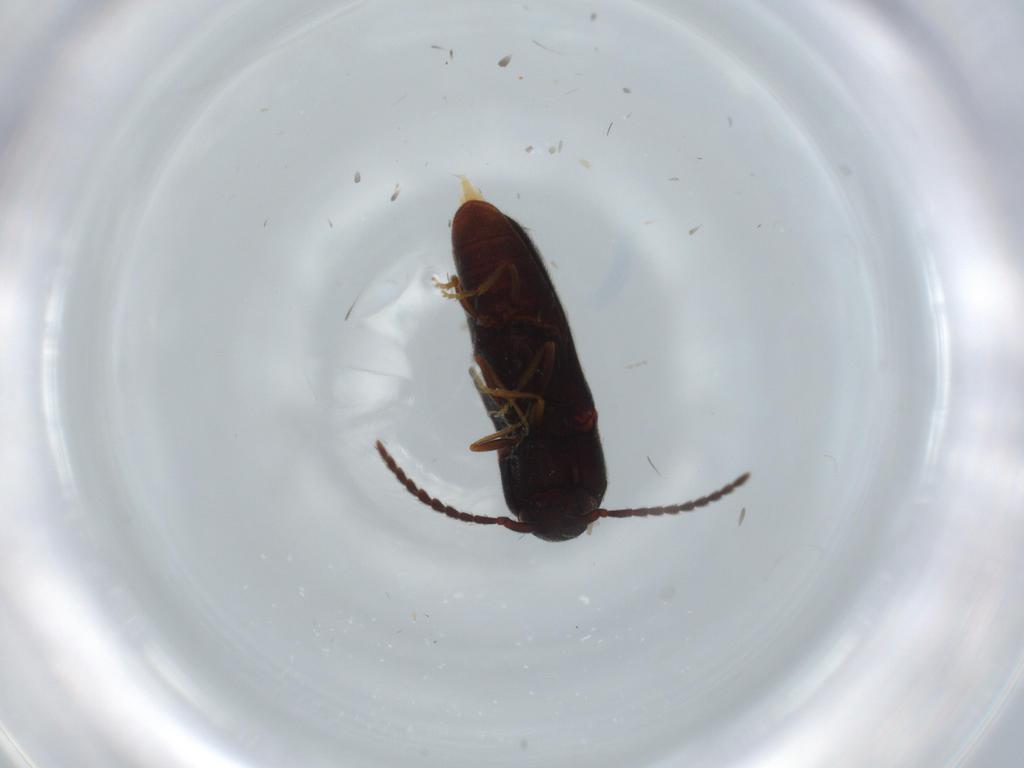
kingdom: Animalia
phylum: Arthropoda
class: Insecta
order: Coleoptera
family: Eucnemidae
